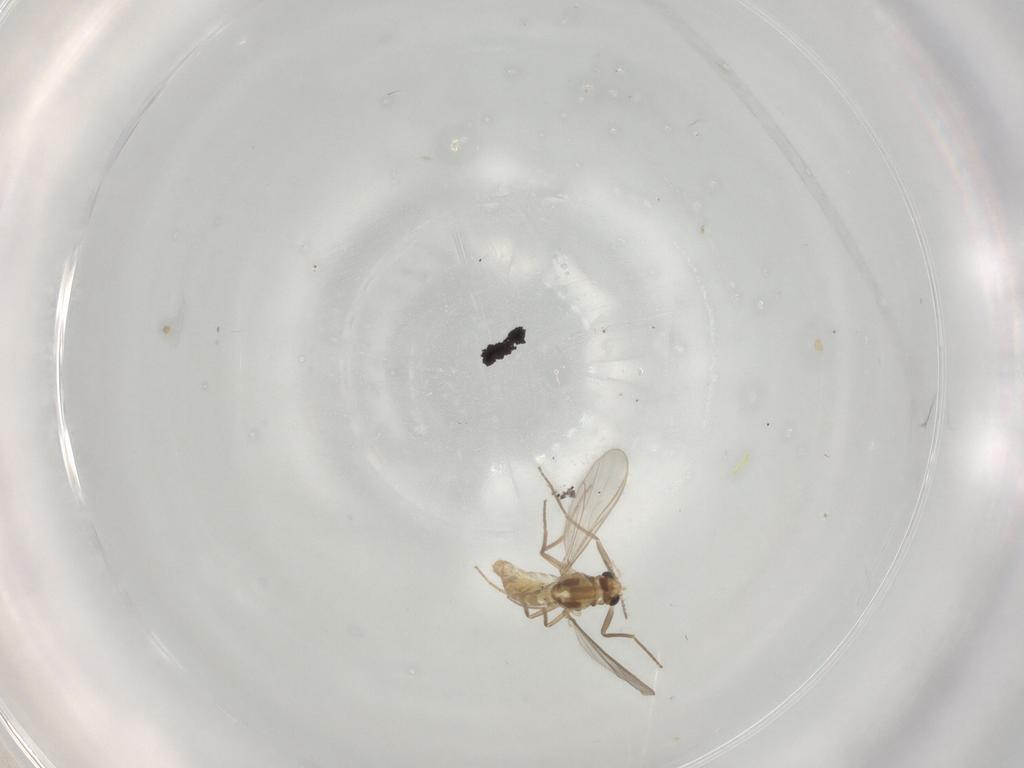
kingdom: Animalia
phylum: Arthropoda
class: Insecta
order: Diptera
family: Chironomidae
